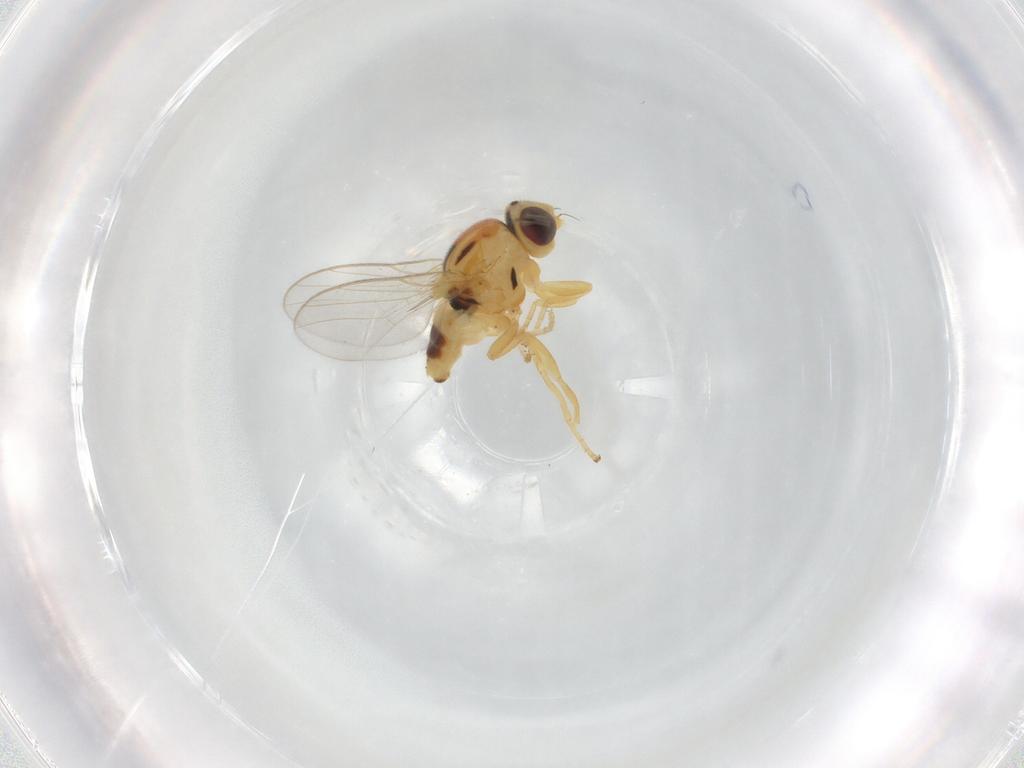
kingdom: Animalia
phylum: Arthropoda
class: Insecta
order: Diptera
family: Chloropidae
